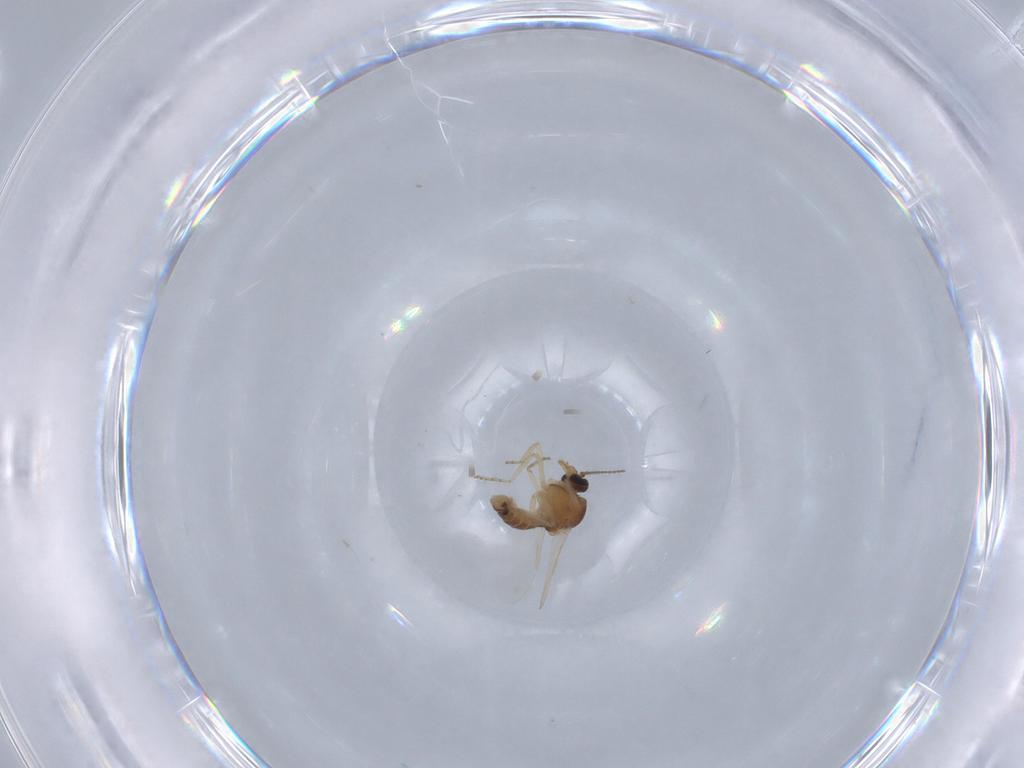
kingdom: Animalia
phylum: Arthropoda
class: Insecta
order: Diptera
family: Ceratopogonidae
